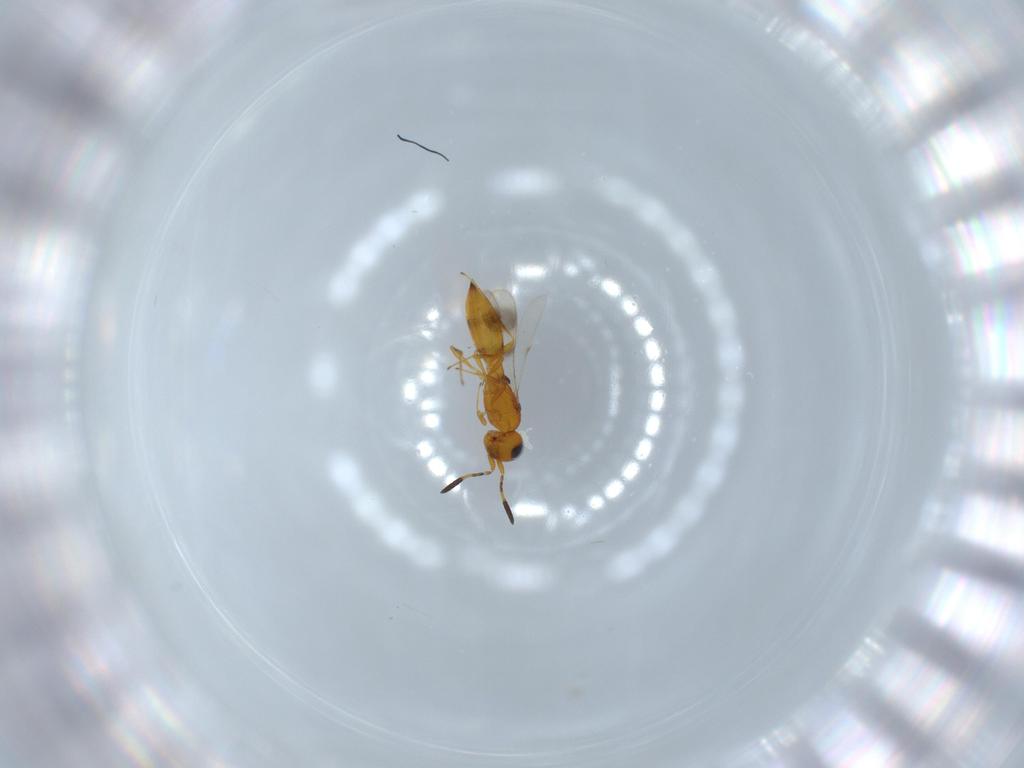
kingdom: Animalia
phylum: Arthropoda
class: Insecta
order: Hymenoptera
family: Scelionidae
